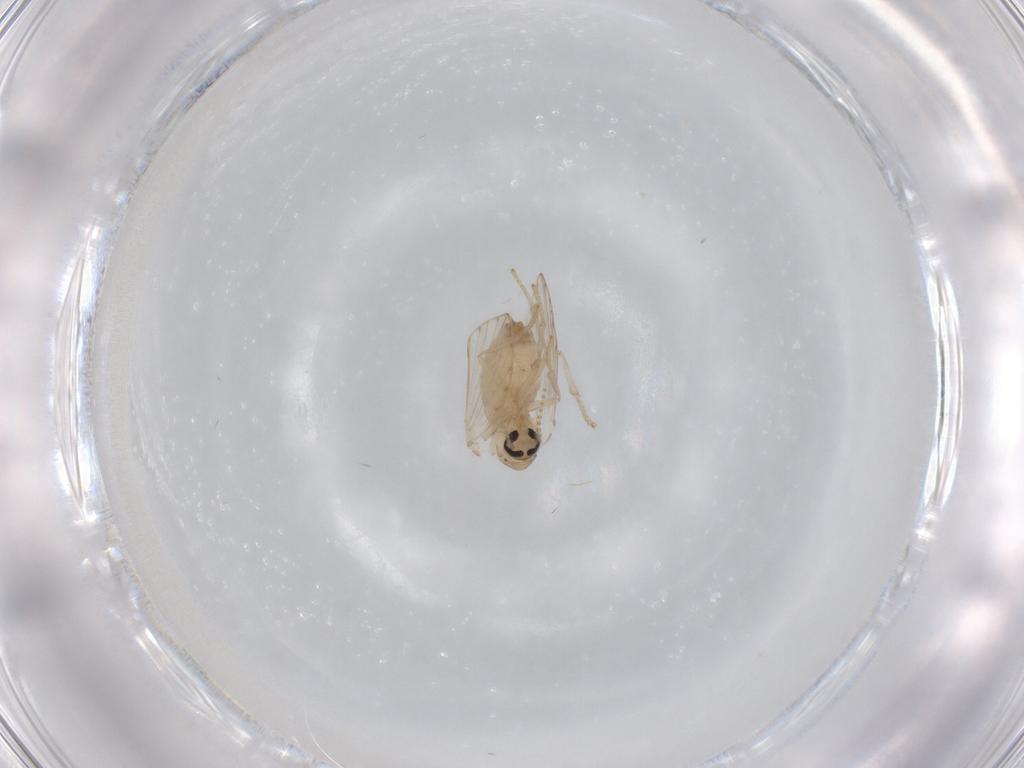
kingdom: Animalia
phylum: Arthropoda
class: Insecta
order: Diptera
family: Psychodidae
